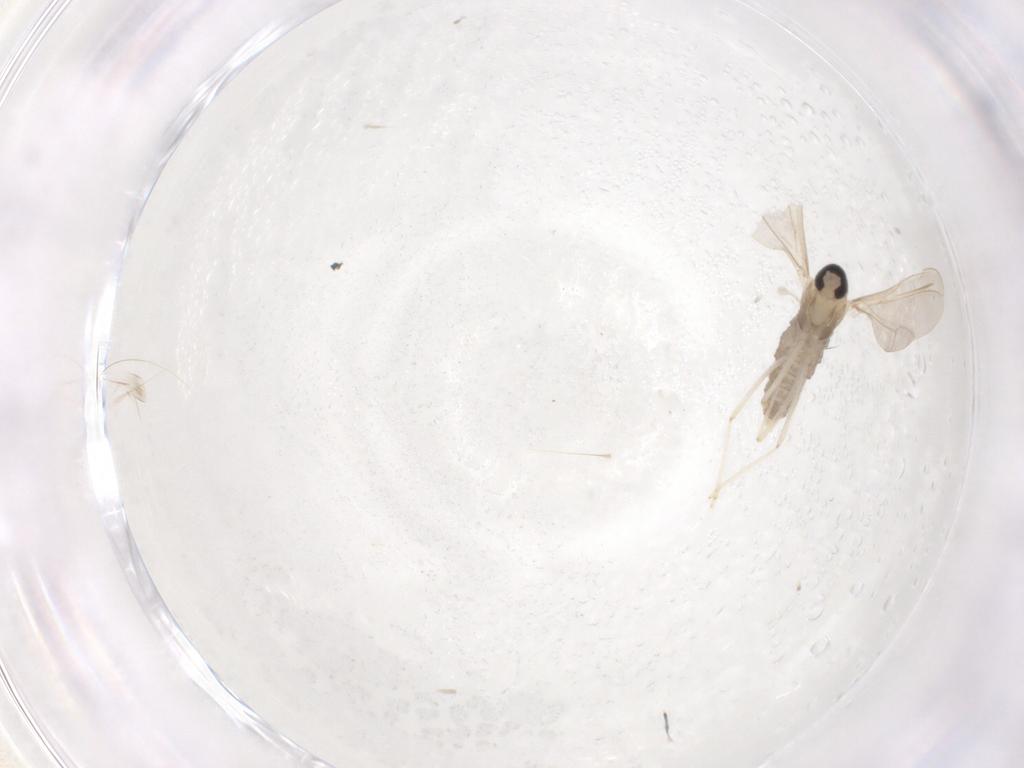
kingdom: Animalia
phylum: Arthropoda
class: Insecta
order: Diptera
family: Cecidomyiidae
